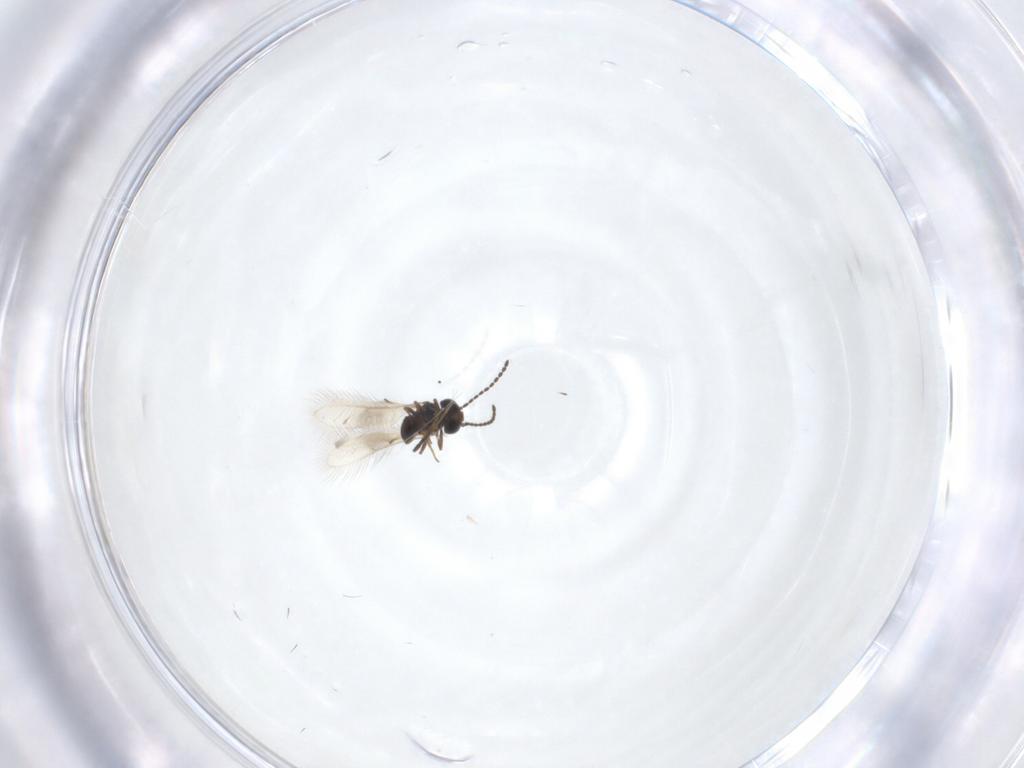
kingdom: Animalia
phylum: Arthropoda
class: Insecta
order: Hymenoptera
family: Scelionidae
